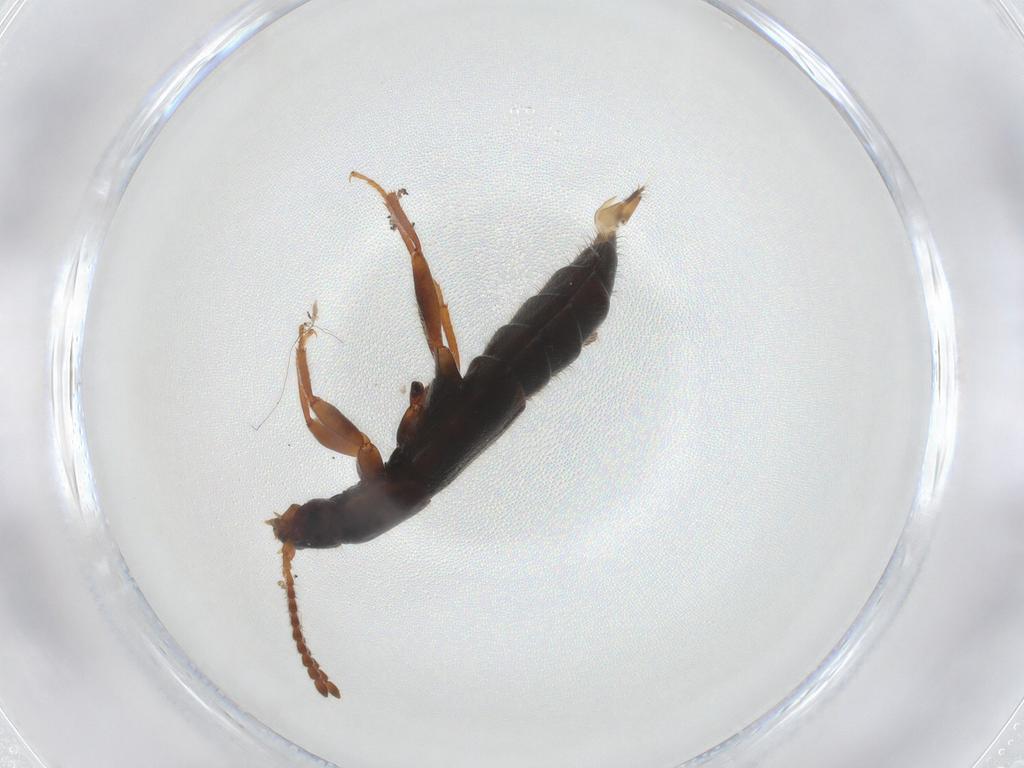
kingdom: Animalia
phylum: Arthropoda
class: Insecta
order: Coleoptera
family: Staphylinidae
